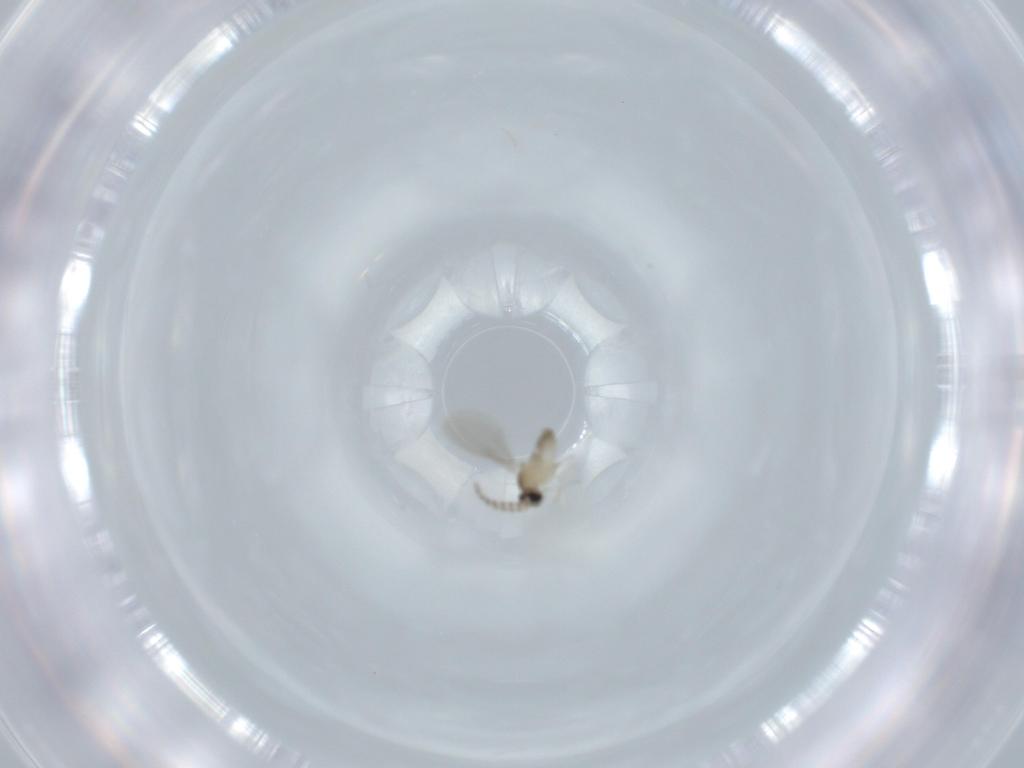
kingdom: Animalia
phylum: Arthropoda
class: Insecta
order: Diptera
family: Cecidomyiidae
